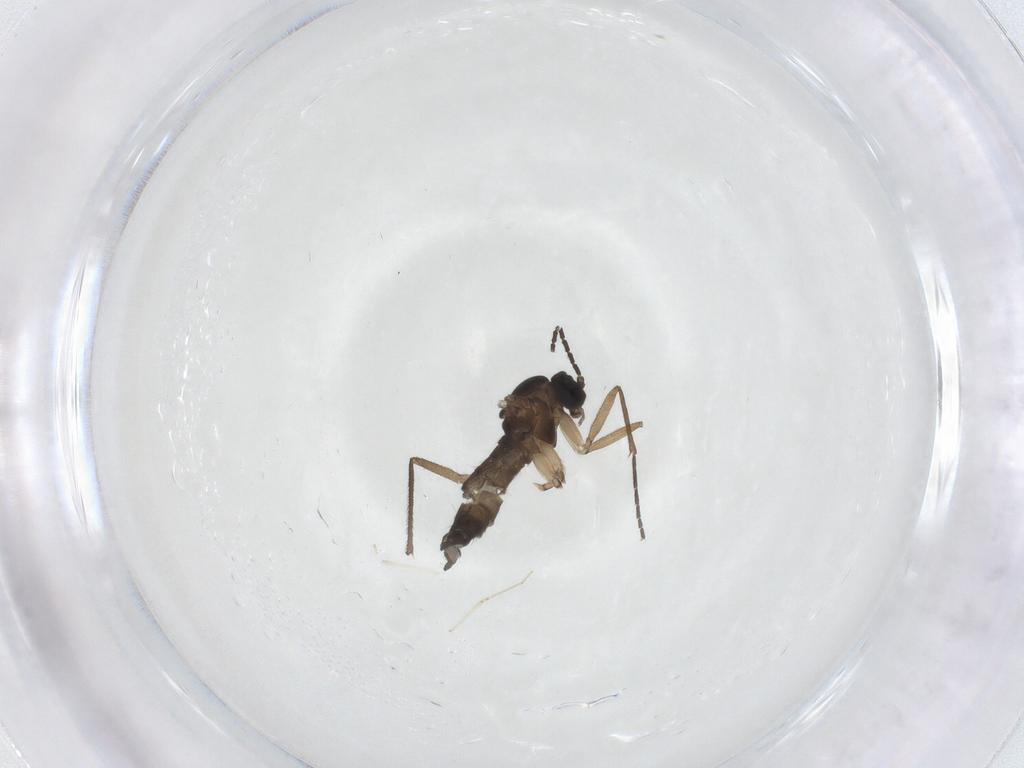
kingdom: Animalia
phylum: Arthropoda
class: Insecta
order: Diptera
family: Sciaridae
